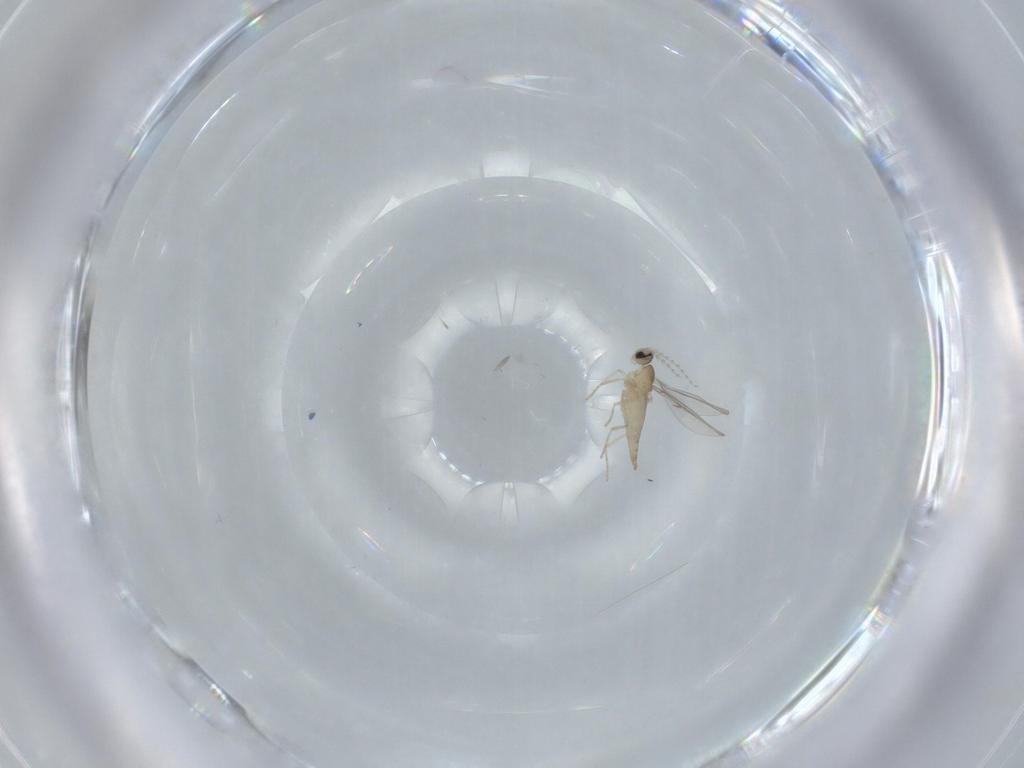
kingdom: Animalia
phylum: Arthropoda
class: Insecta
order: Diptera
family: Cecidomyiidae
